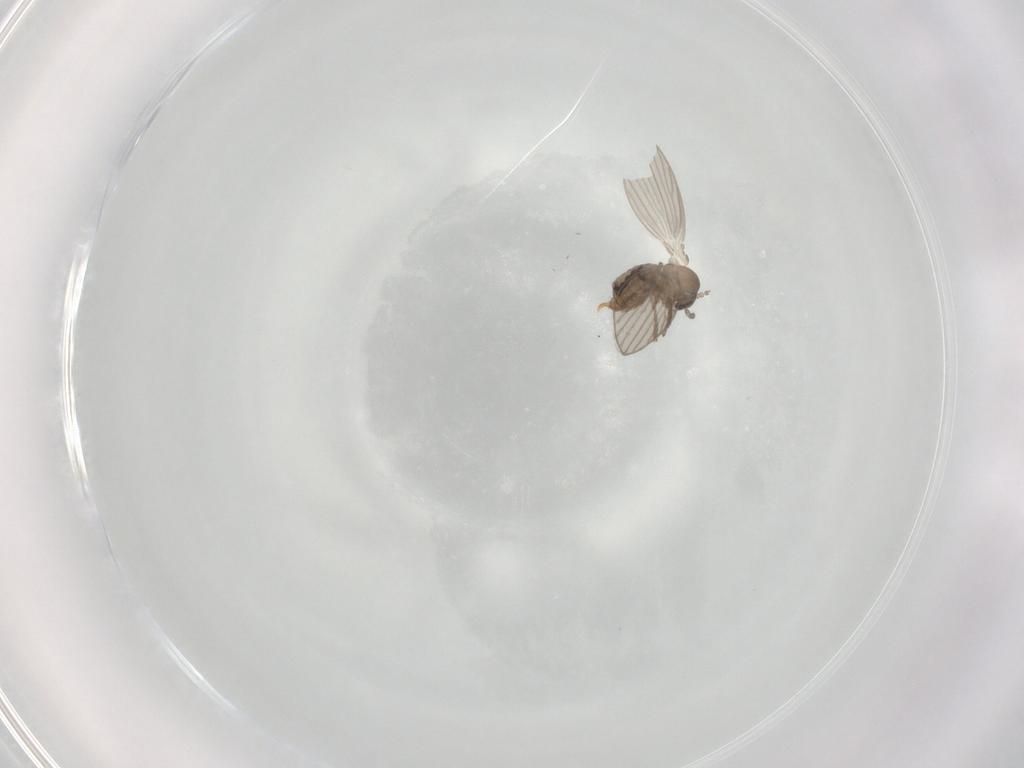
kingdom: Animalia
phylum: Arthropoda
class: Insecta
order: Diptera
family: Psychodidae
